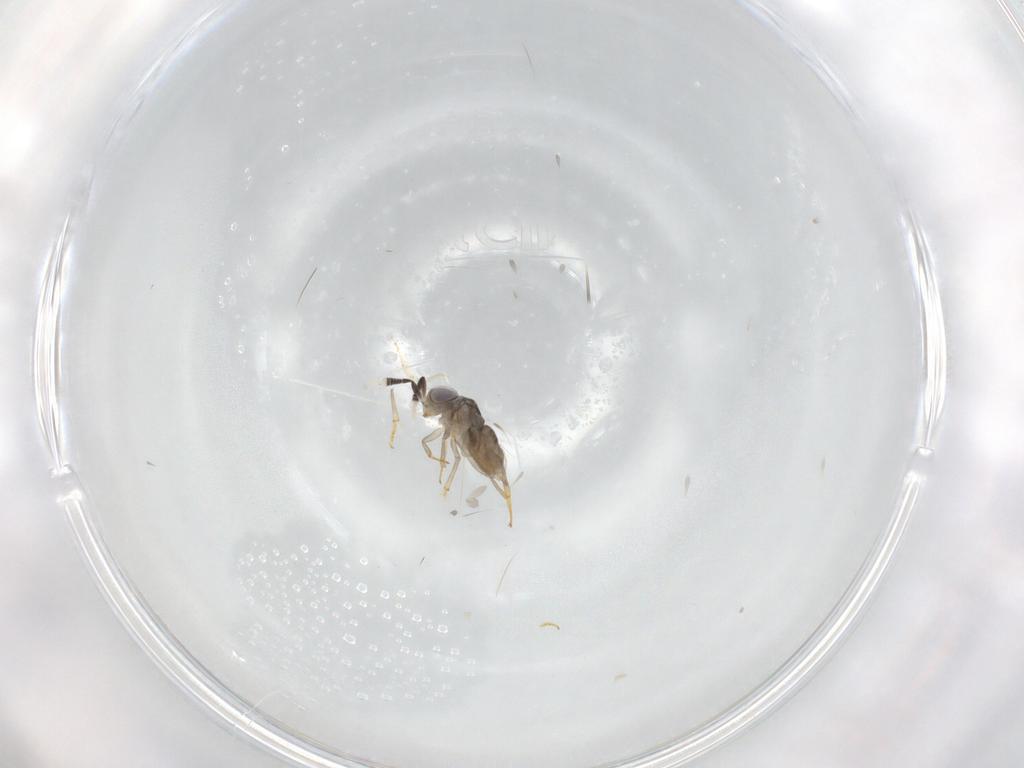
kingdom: Animalia
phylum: Arthropoda
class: Insecta
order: Hymenoptera
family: Encyrtidae
